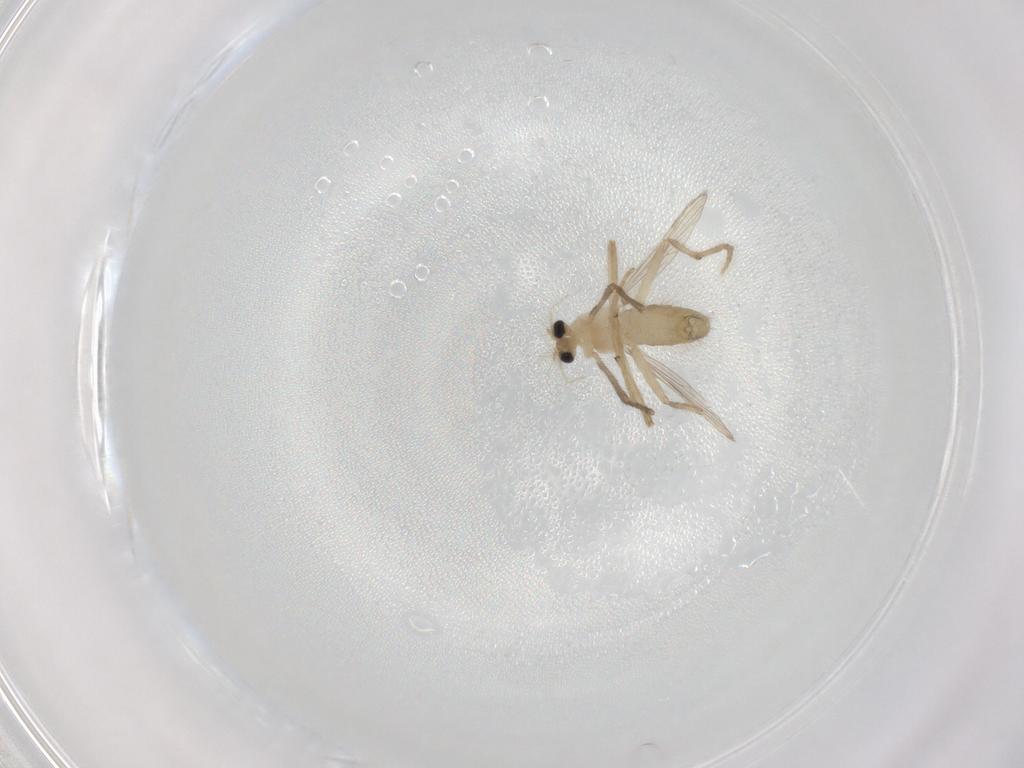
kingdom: Animalia
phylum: Arthropoda
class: Insecta
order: Diptera
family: Chironomidae
